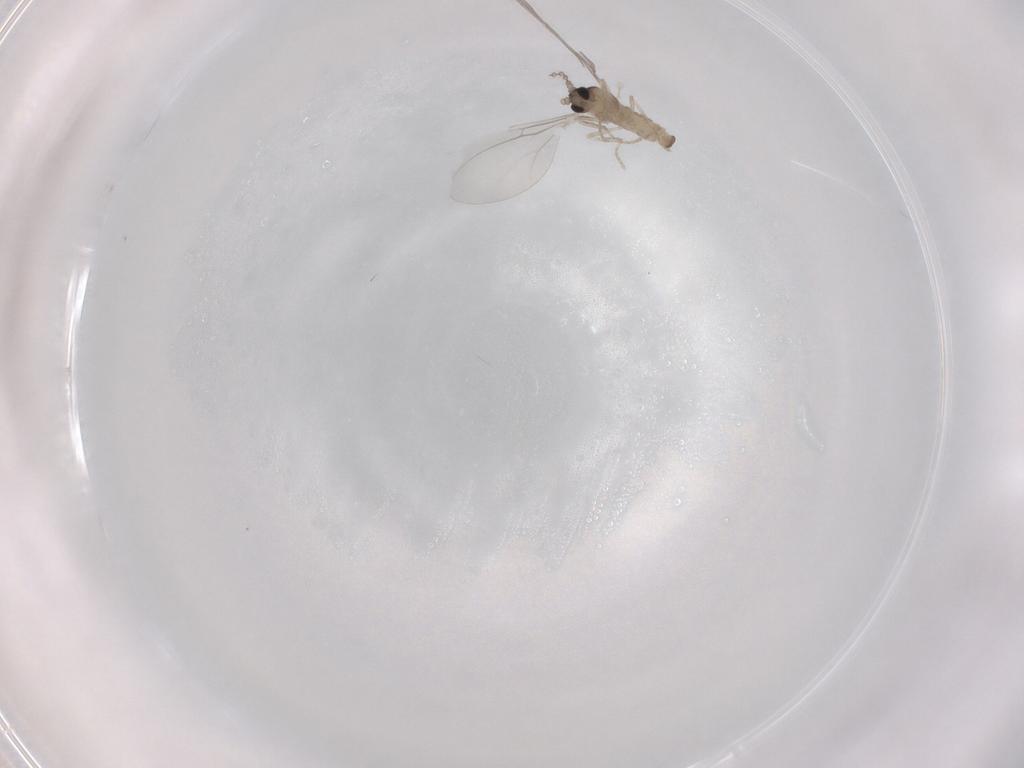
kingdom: Animalia
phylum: Arthropoda
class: Insecta
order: Diptera
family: Cecidomyiidae
